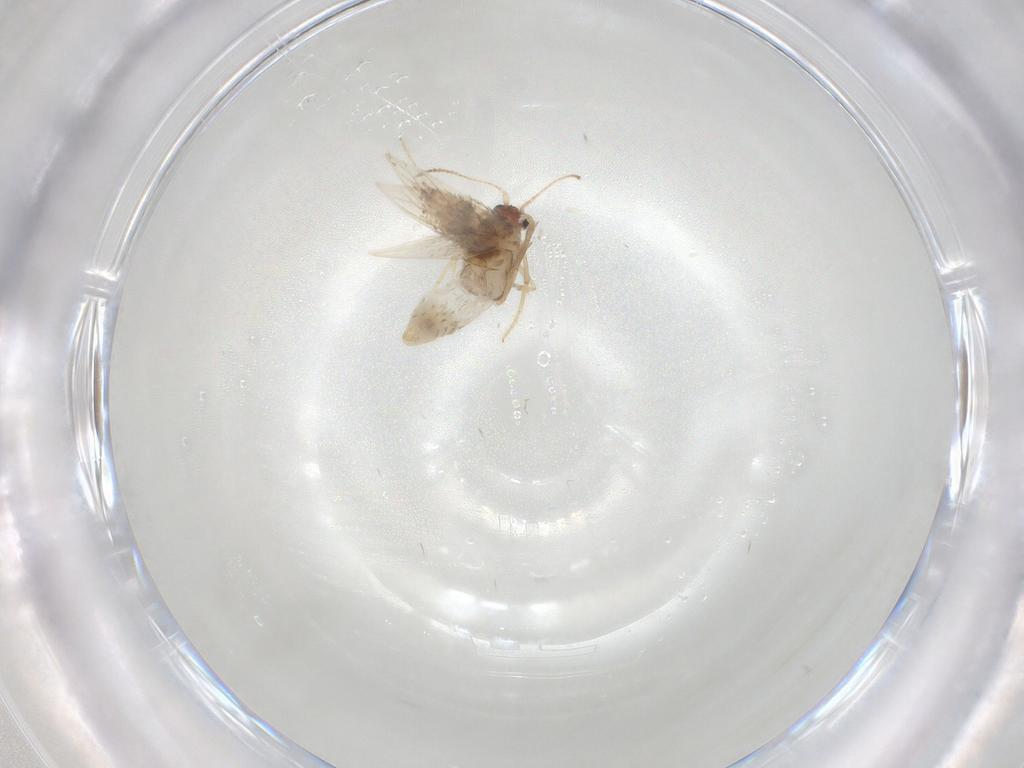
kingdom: Animalia
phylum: Arthropoda
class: Insecta
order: Lepidoptera
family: Nepticulidae
